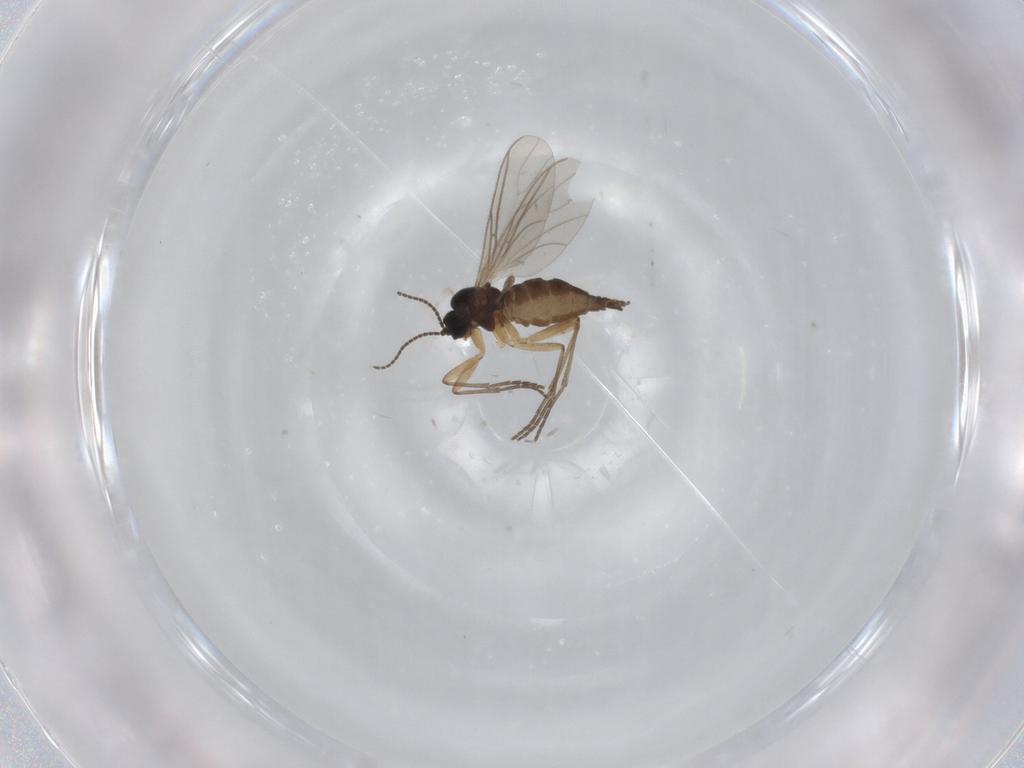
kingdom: Animalia
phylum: Arthropoda
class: Insecta
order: Diptera
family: Sciaridae
